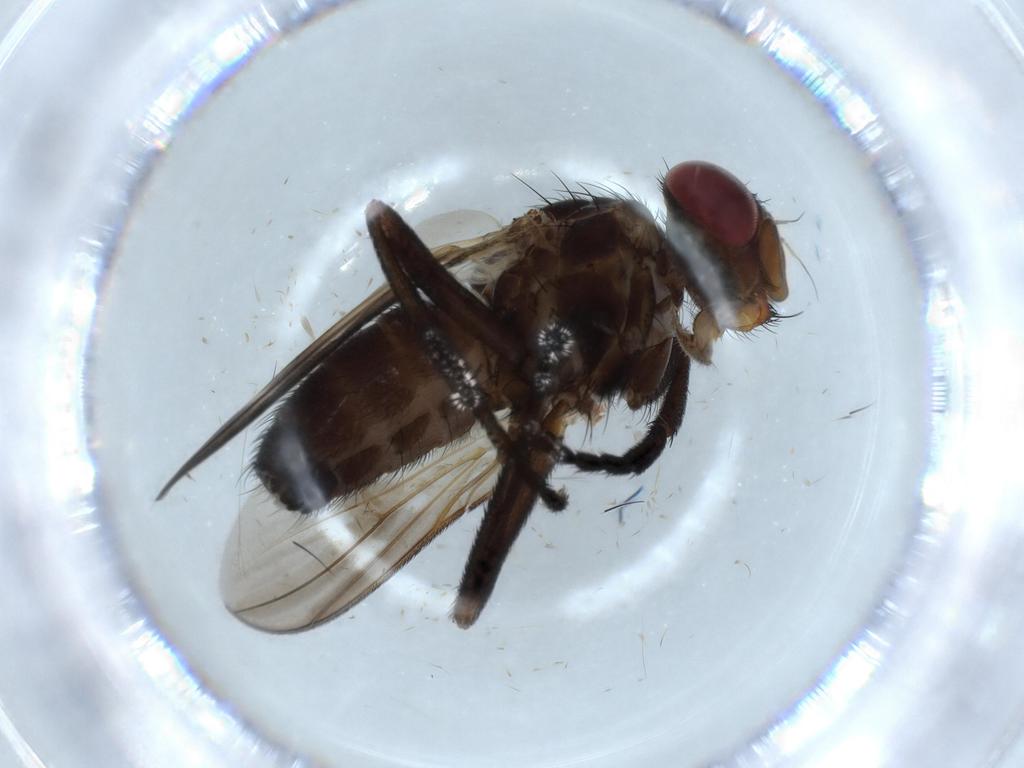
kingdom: Animalia
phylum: Arthropoda
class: Insecta
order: Diptera
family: Calliphoridae
